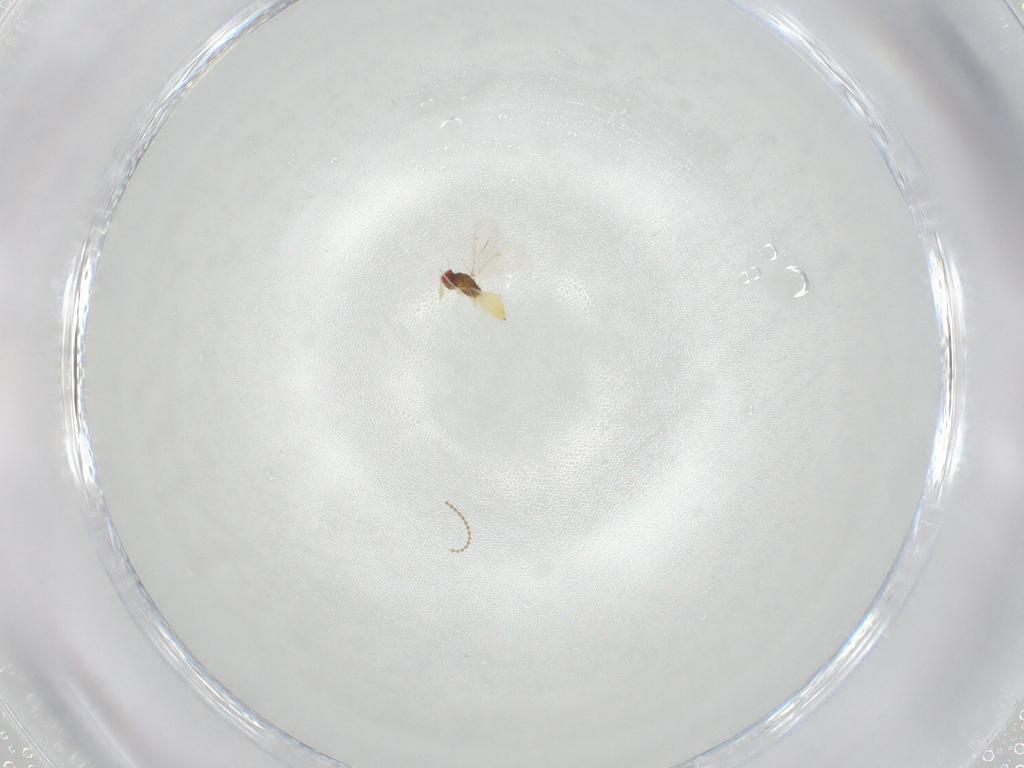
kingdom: Animalia
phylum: Arthropoda
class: Insecta
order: Hymenoptera
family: Eulophidae
